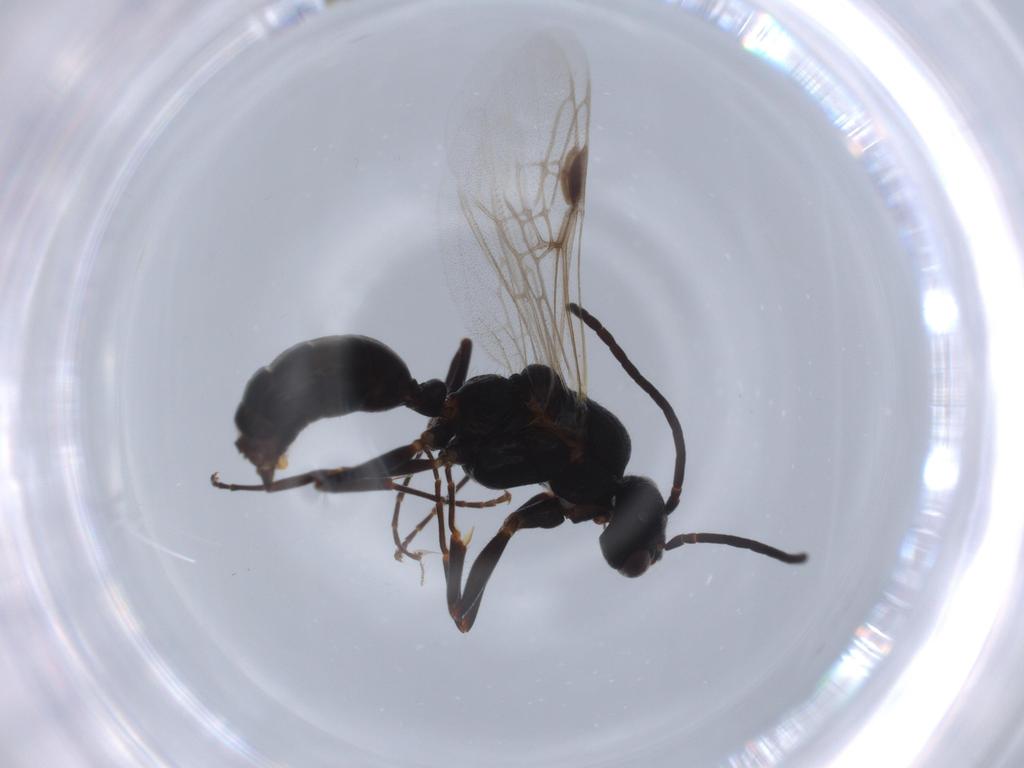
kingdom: Animalia
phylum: Arthropoda
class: Insecta
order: Hymenoptera
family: Formicidae
